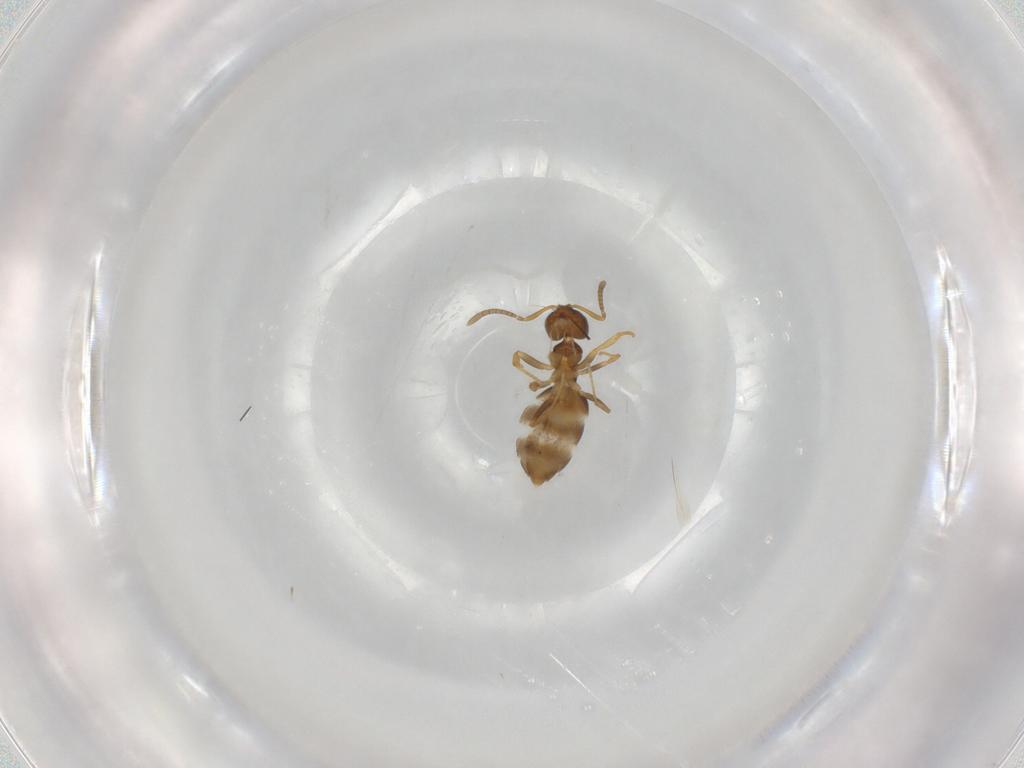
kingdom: Animalia
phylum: Arthropoda
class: Insecta
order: Hymenoptera
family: Formicidae
